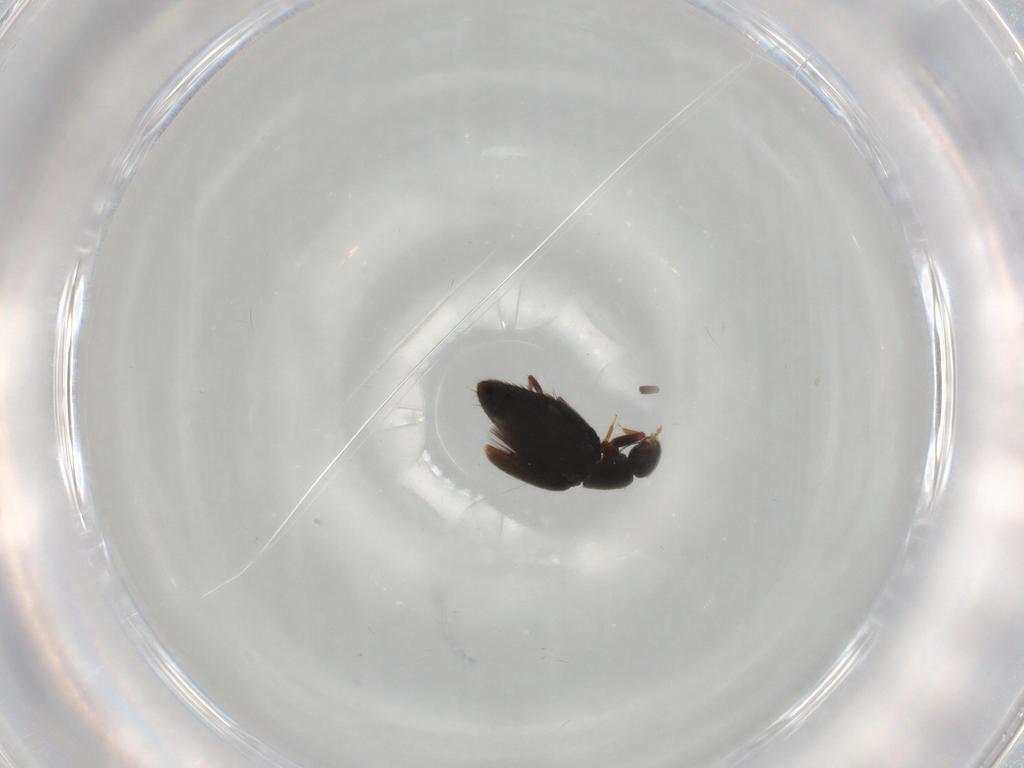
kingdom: Animalia
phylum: Arthropoda
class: Insecta
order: Coleoptera
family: Ptiliidae
